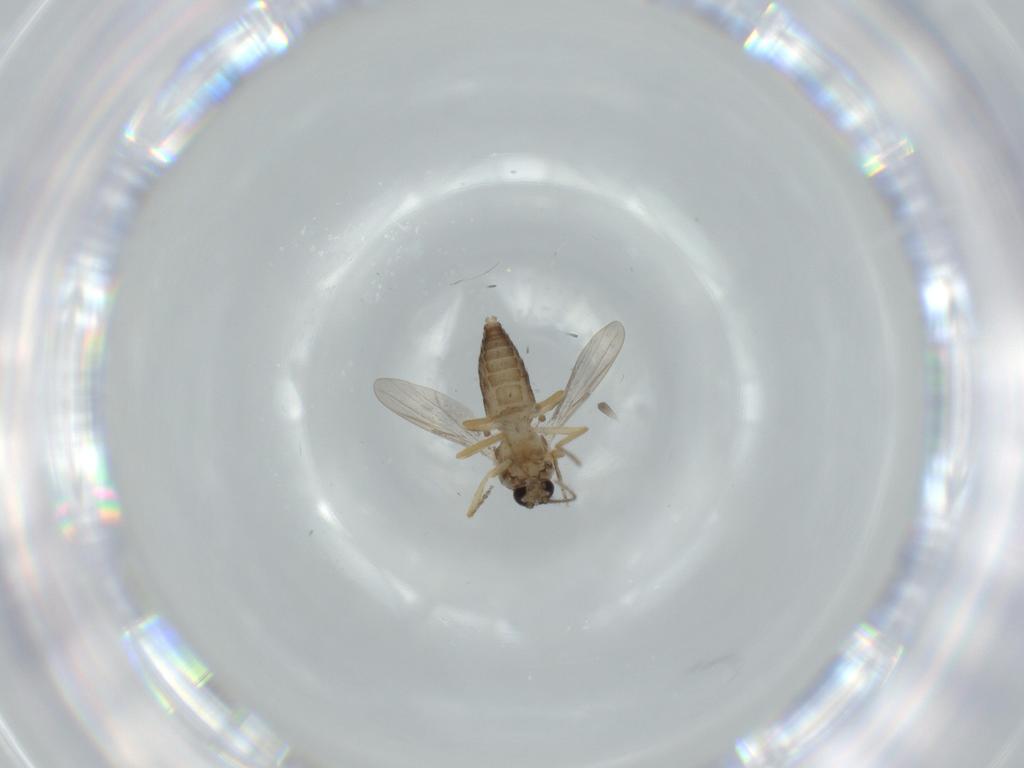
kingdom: Animalia
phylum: Arthropoda
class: Insecta
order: Diptera
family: Ceratopogonidae
